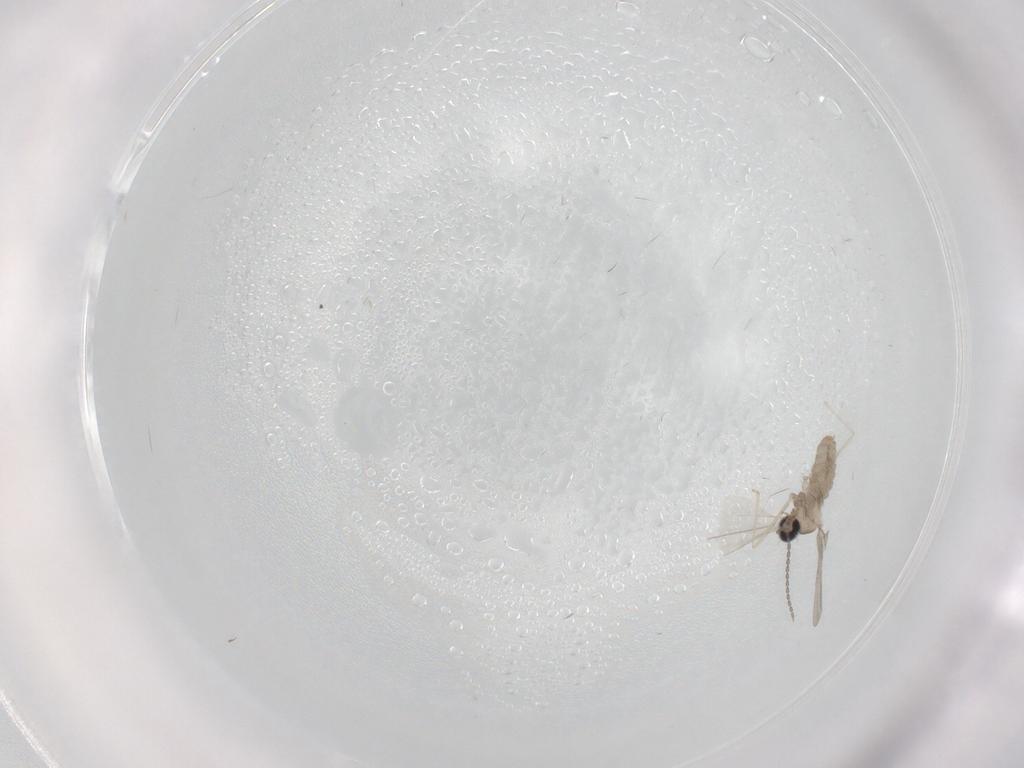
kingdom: Animalia
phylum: Arthropoda
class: Insecta
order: Diptera
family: Cecidomyiidae
